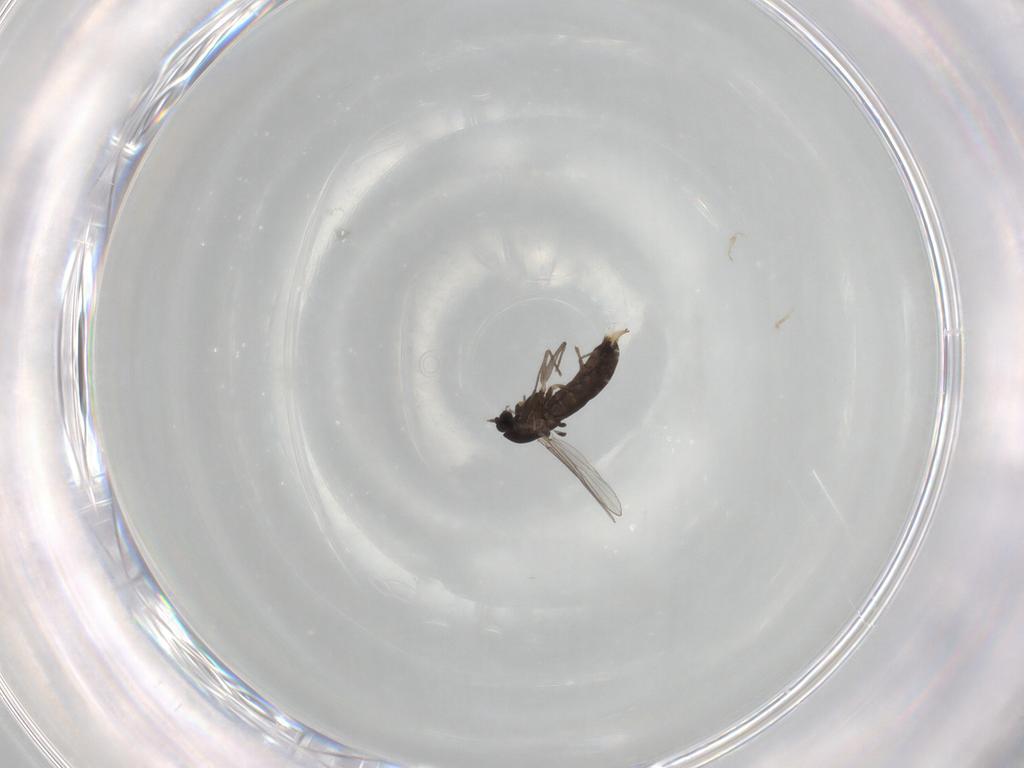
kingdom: Animalia
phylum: Arthropoda
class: Insecta
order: Diptera
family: Chironomidae
